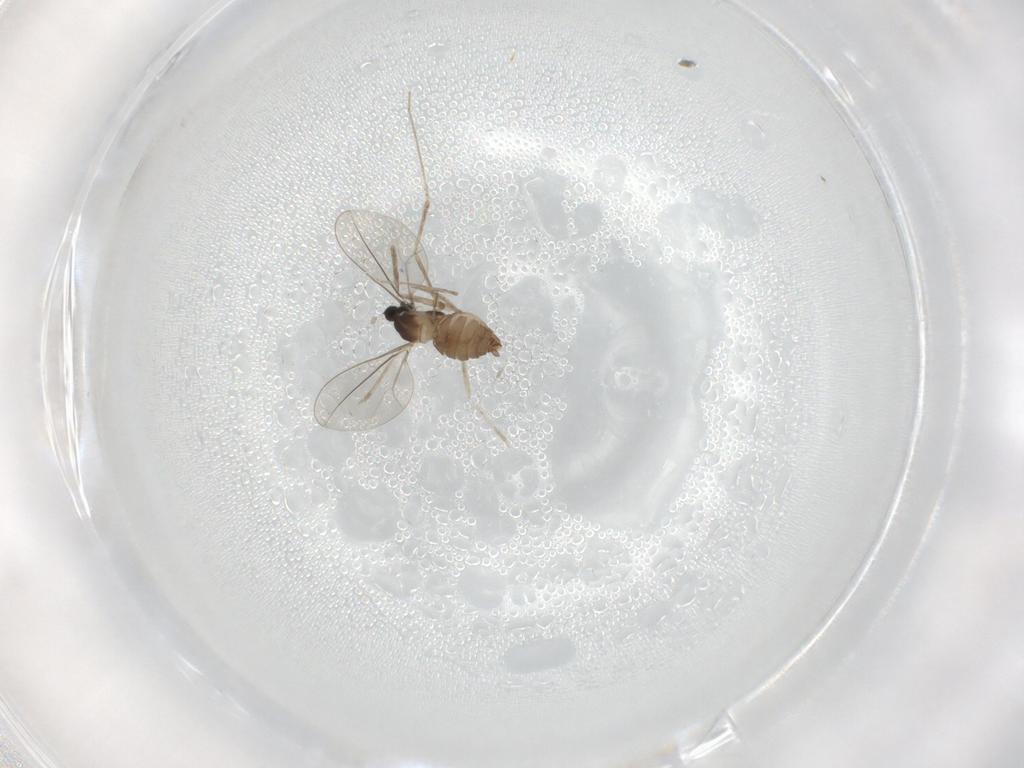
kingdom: Animalia
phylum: Arthropoda
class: Insecta
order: Diptera
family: Cecidomyiidae
